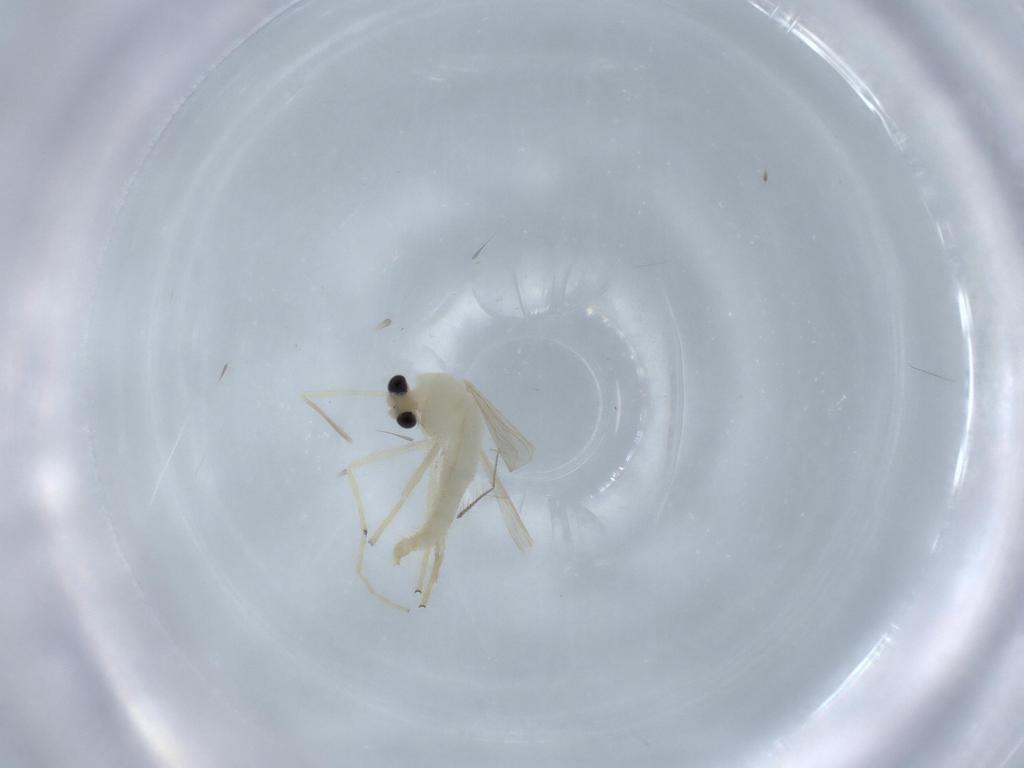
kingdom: Animalia
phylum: Arthropoda
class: Insecta
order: Diptera
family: Chironomidae
